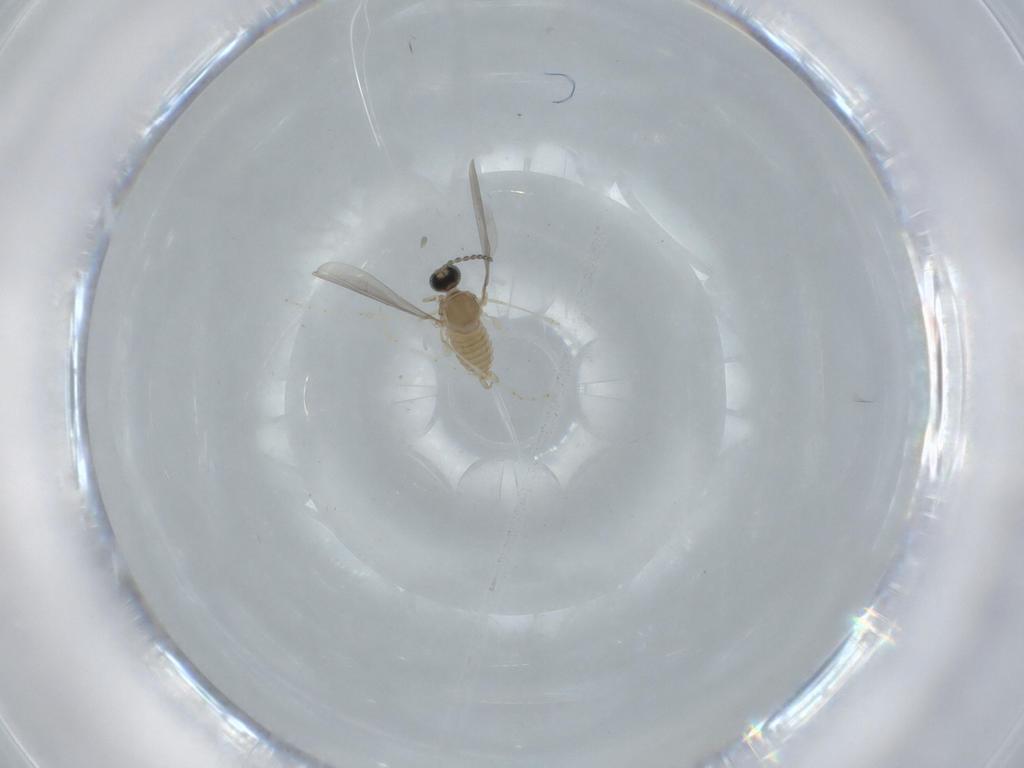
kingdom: Animalia
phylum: Arthropoda
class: Insecta
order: Diptera
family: Cecidomyiidae
